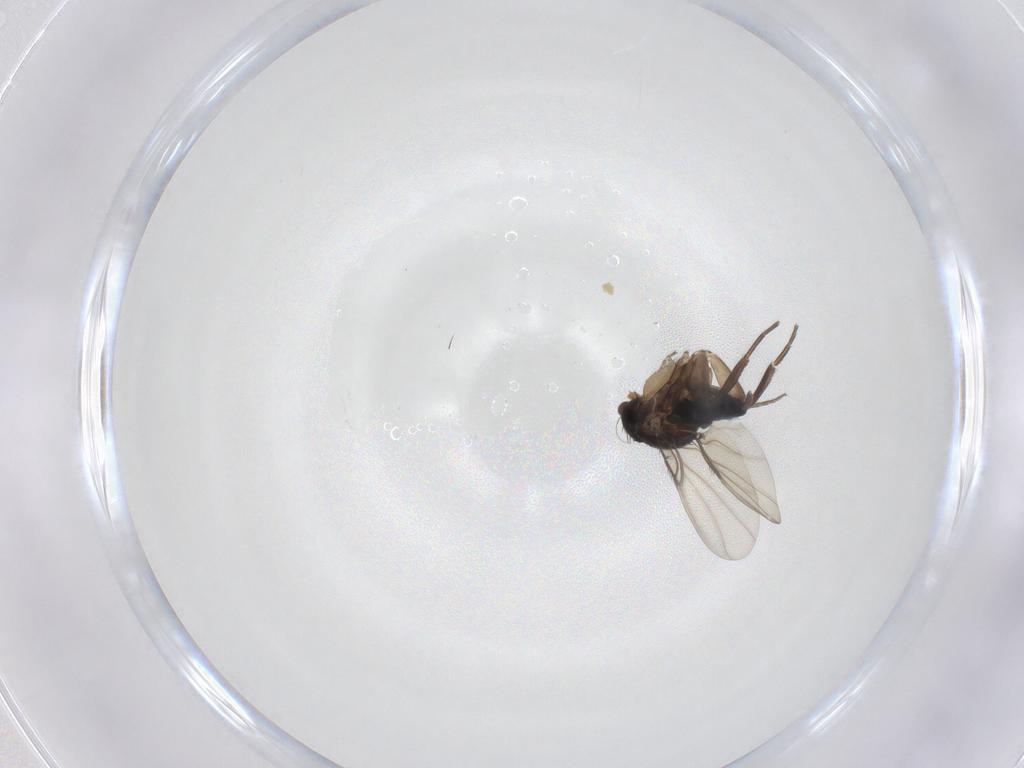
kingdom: Animalia
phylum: Arthropoda
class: Insecta
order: Diptera
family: Phoridae
